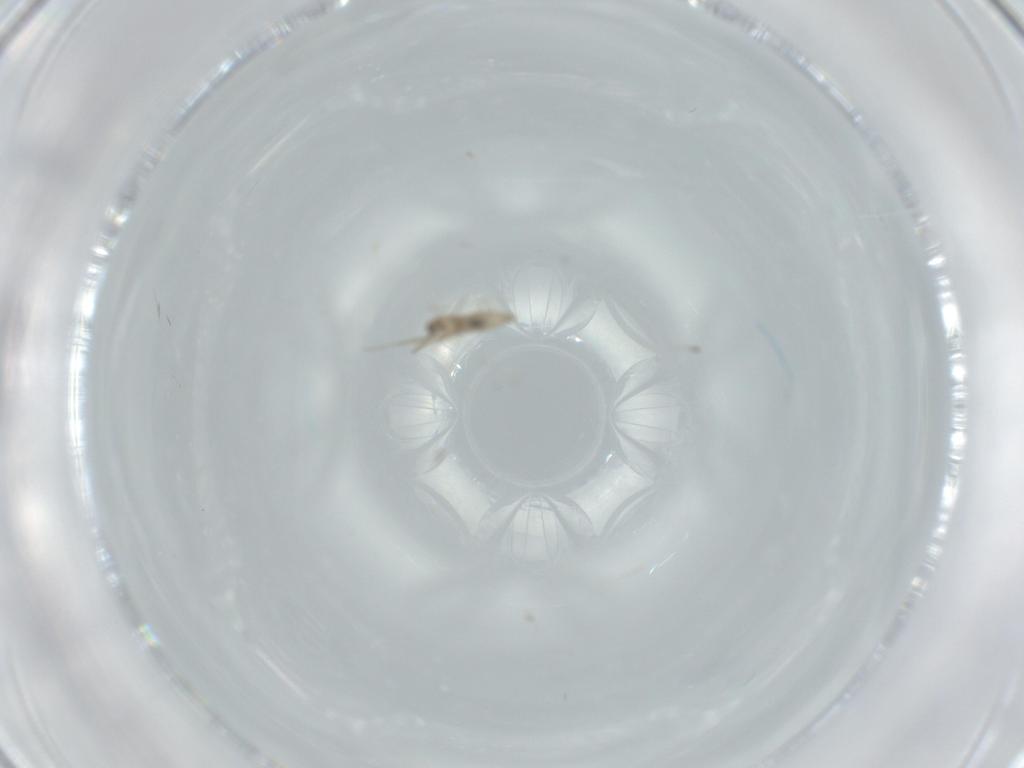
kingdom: Animalia
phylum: Arthropoda
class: Insecta
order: Diptera
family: Cecidomyiidae
